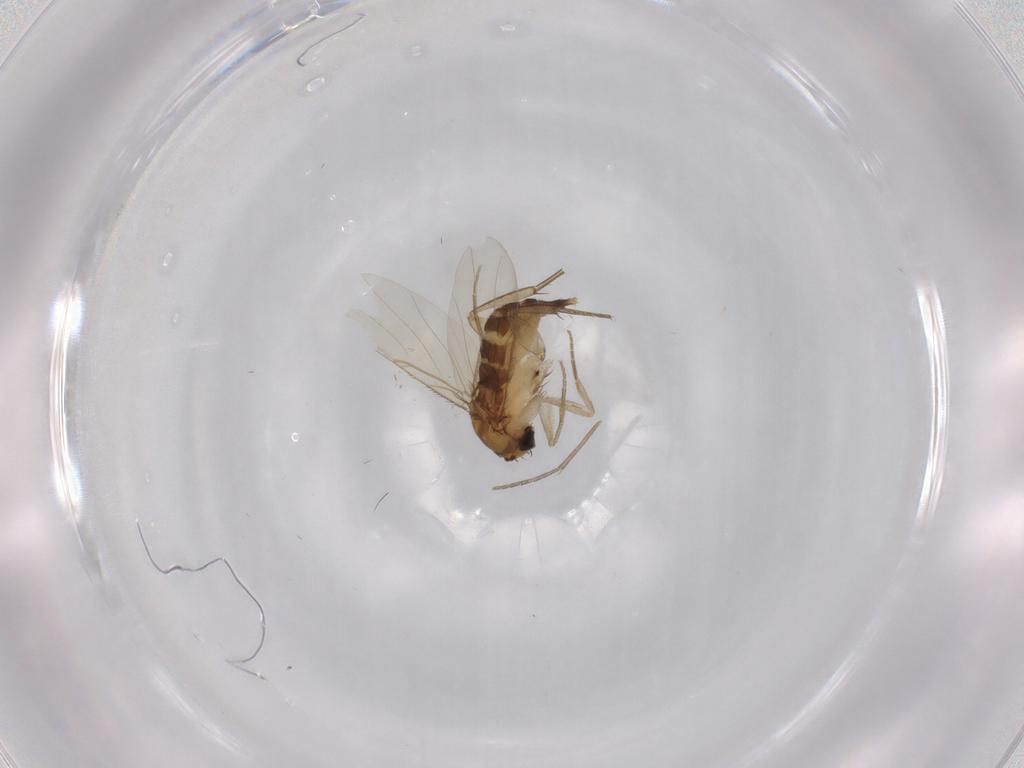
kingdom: Animalia
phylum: Arthropoda
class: Insecta
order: Diptera
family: Phoridae
